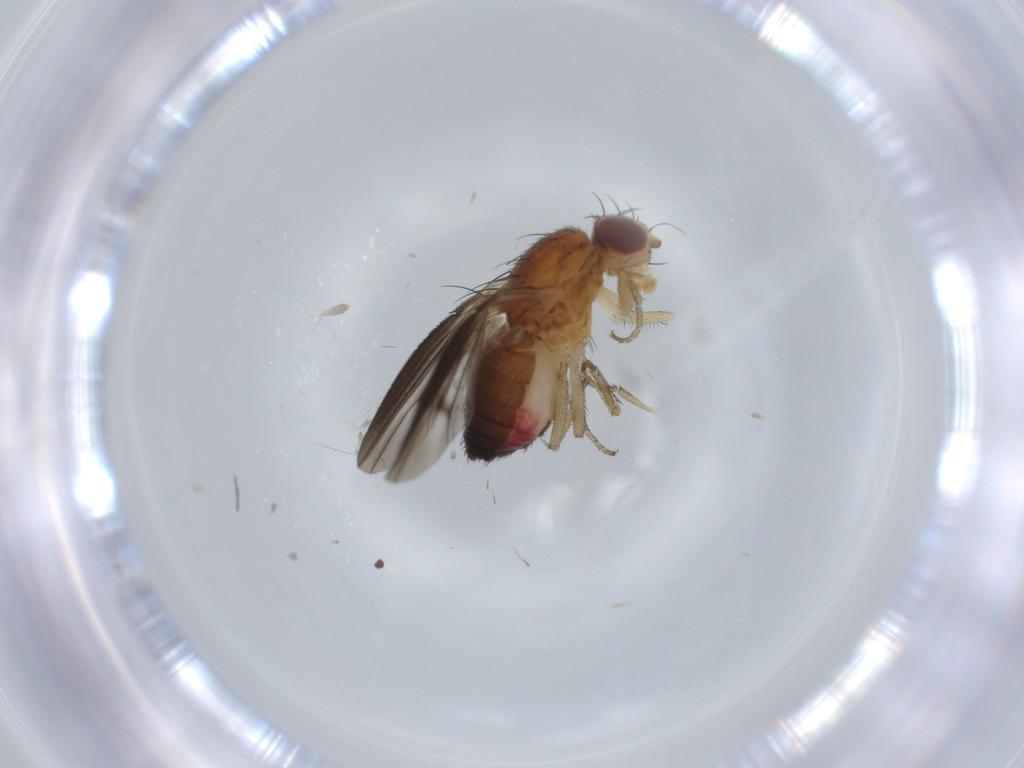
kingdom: Animalia
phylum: Arthropoda
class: Insecta
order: Diptera
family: Heleomyzidae
